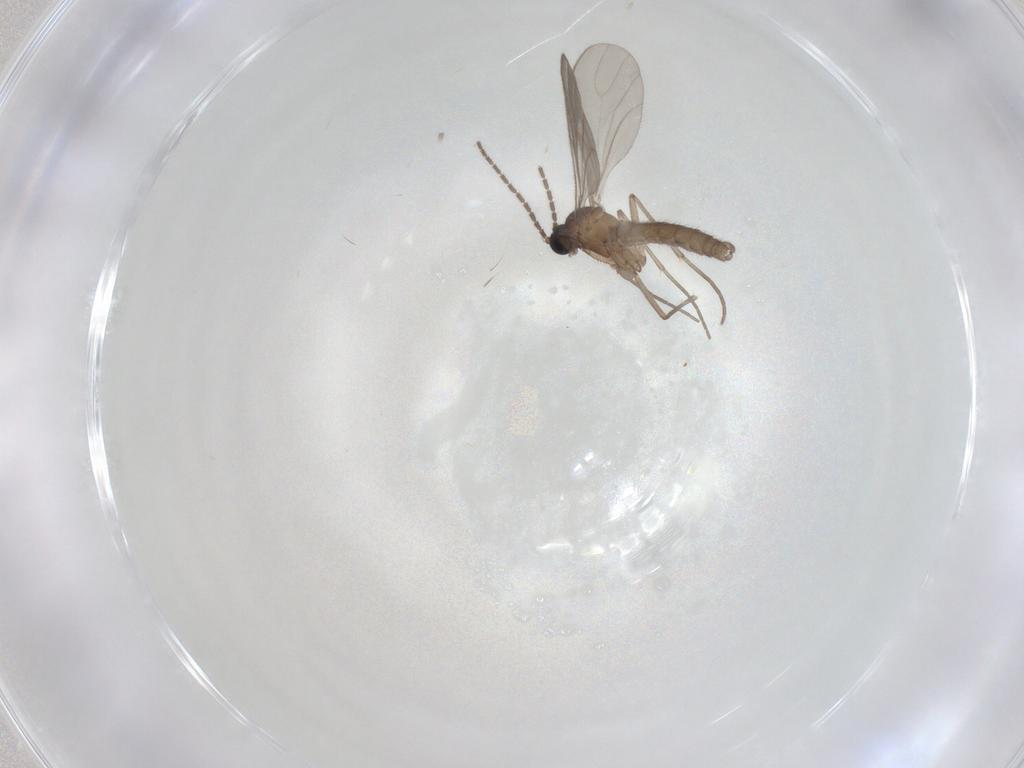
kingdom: Animalia
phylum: Arthropoda
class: Insecta
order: Diptera
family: Sciaridae
